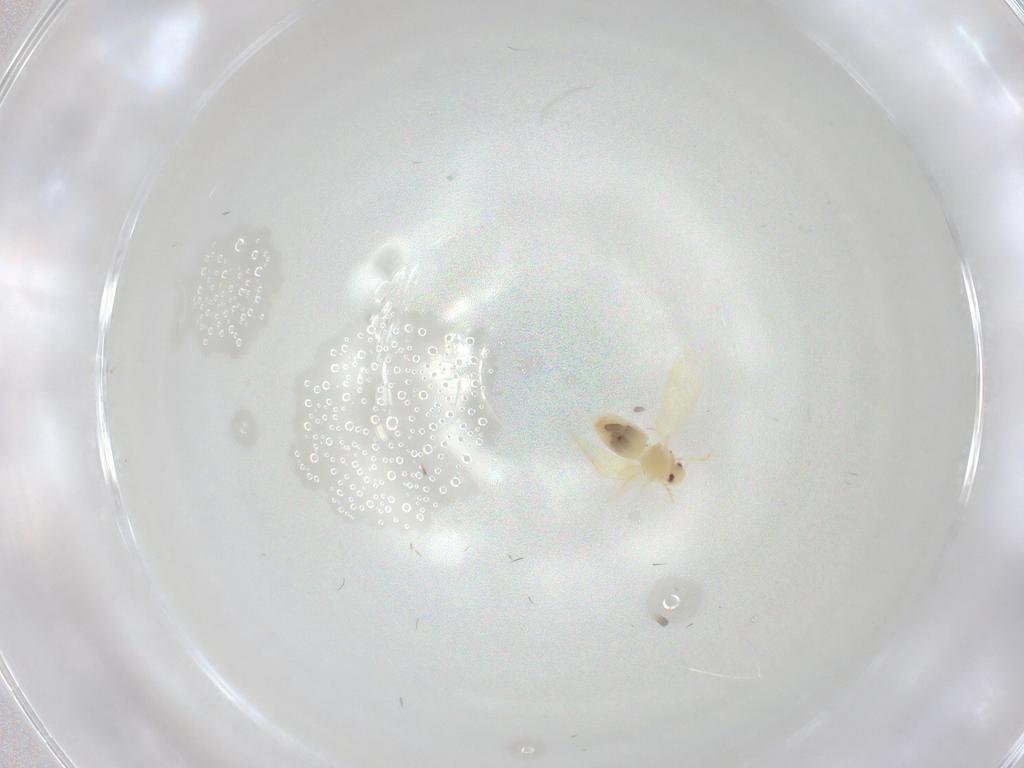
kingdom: Animalia
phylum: Arthropoda
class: Insecta
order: Hemiptera
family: Aleyrodidae
